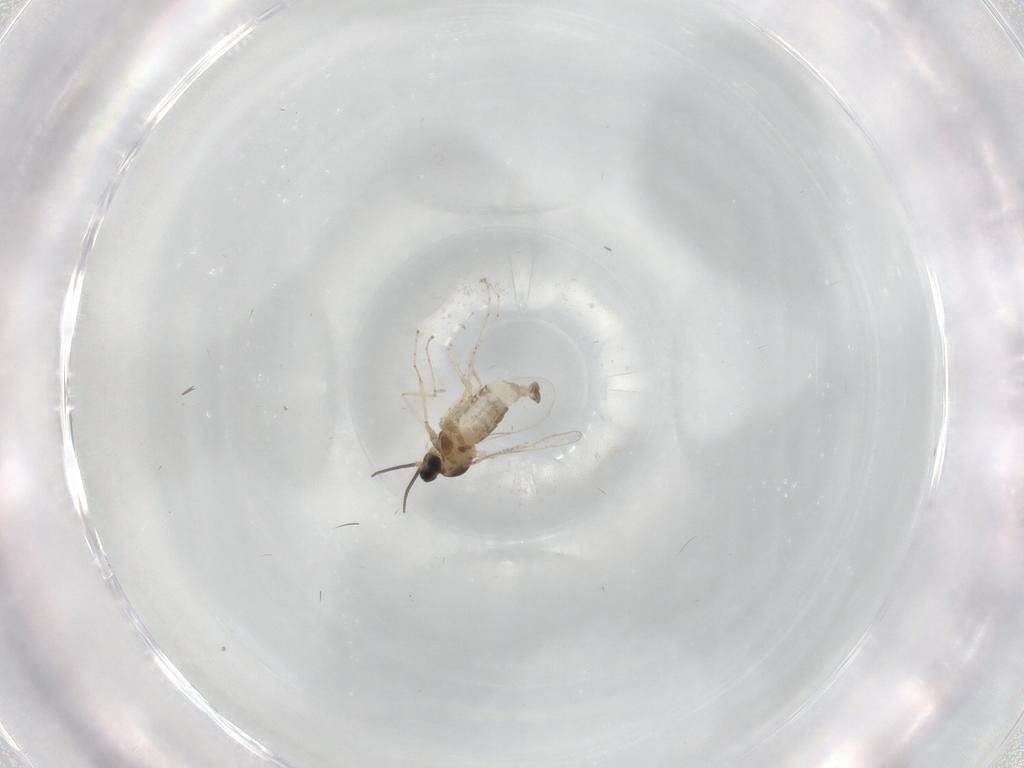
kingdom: Animalia
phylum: Arthropoda
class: Insecta
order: Diptera
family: Cecidomyiidae
